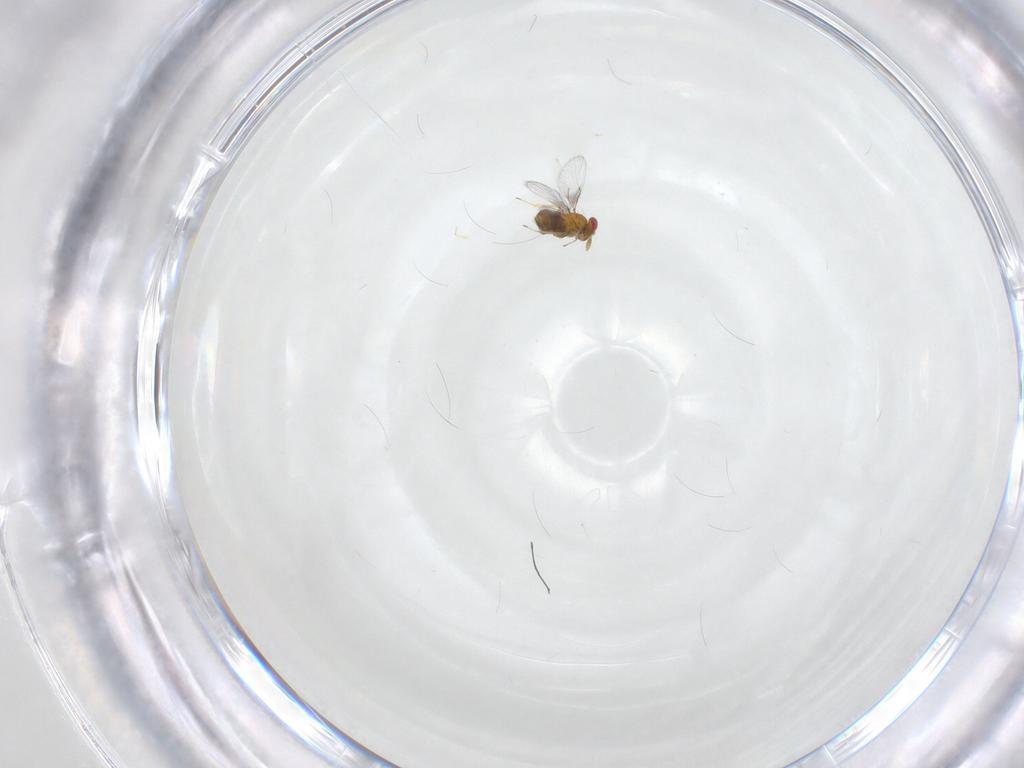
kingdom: Animalia
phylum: Arthropoda
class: Insecta
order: Hymenoptera
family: Trichogrammatidae
